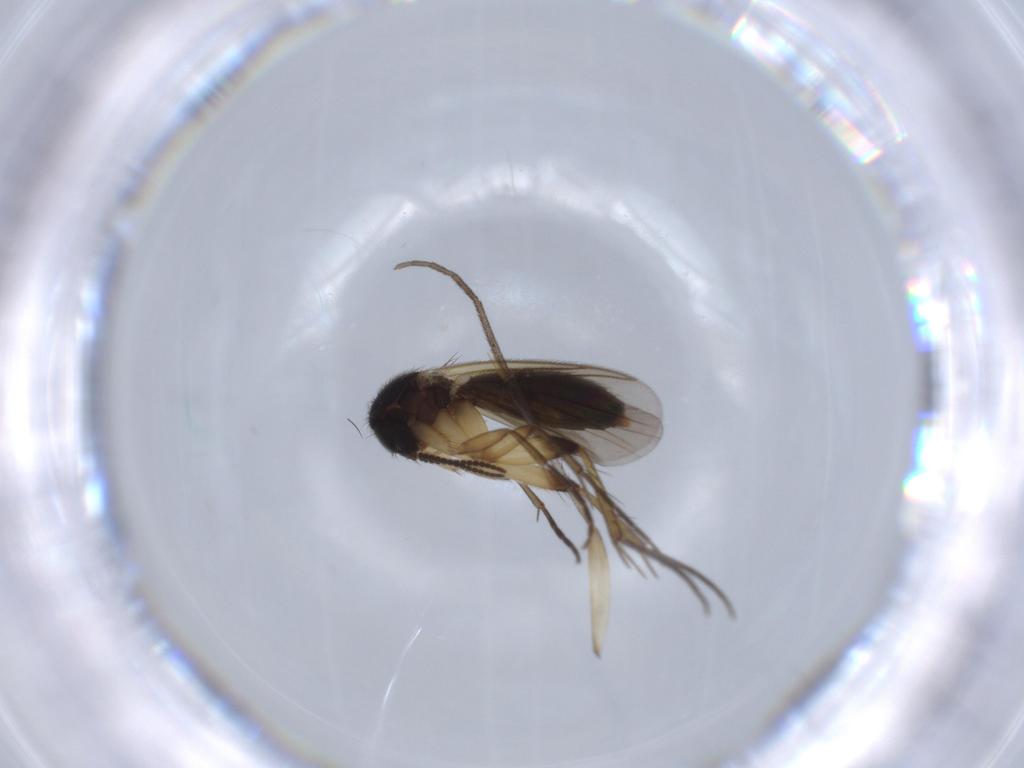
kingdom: Animalia
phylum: Arthropoda
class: Insecta
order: Diptera
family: Mycetophilidae
